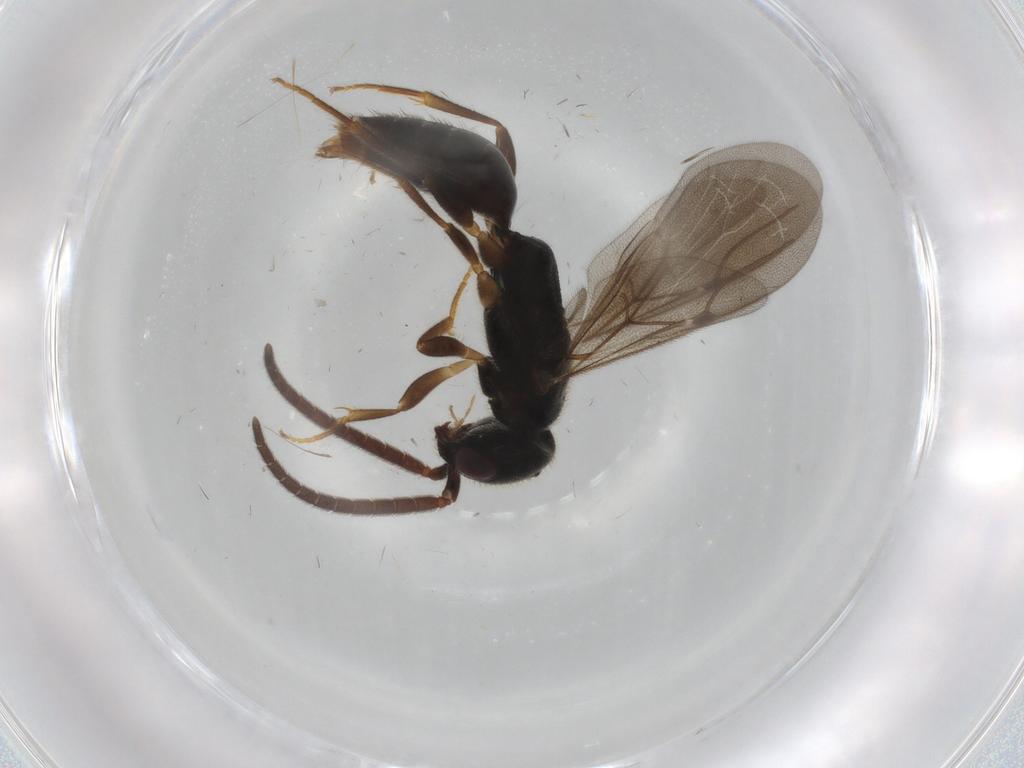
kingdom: Animalia
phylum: Arthropoda
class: Insecta
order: Hymenoptera
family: Bethylidae
